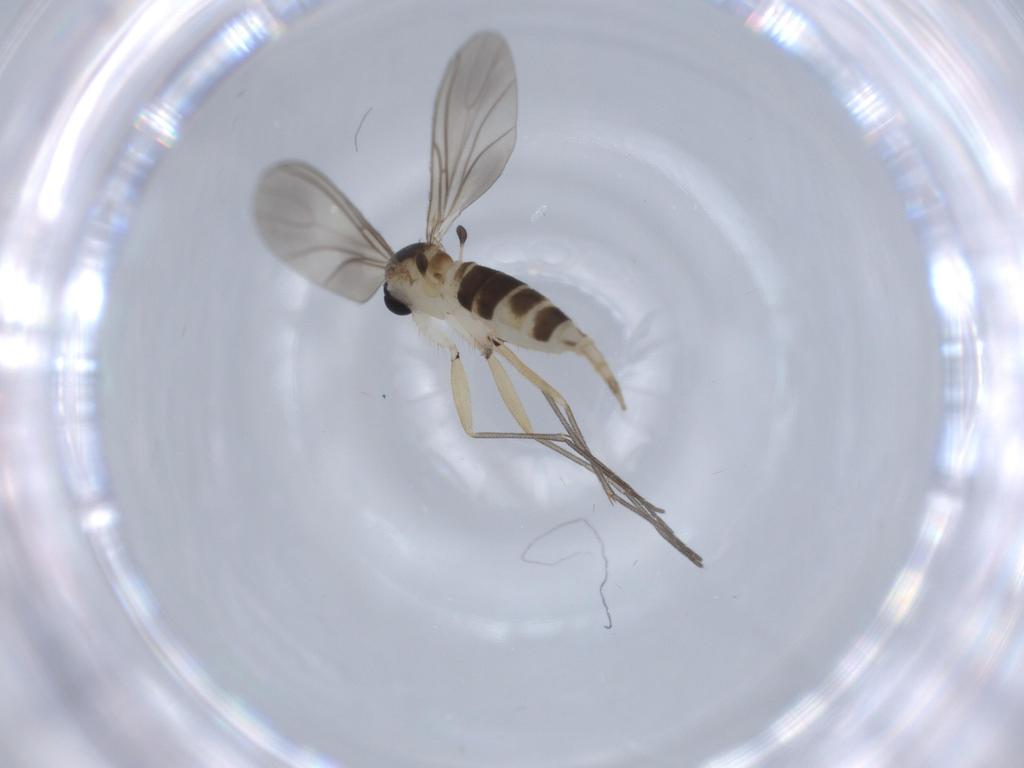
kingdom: Animalia
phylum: Arthropoda
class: Insecta
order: Diptera
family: Sciaridae
